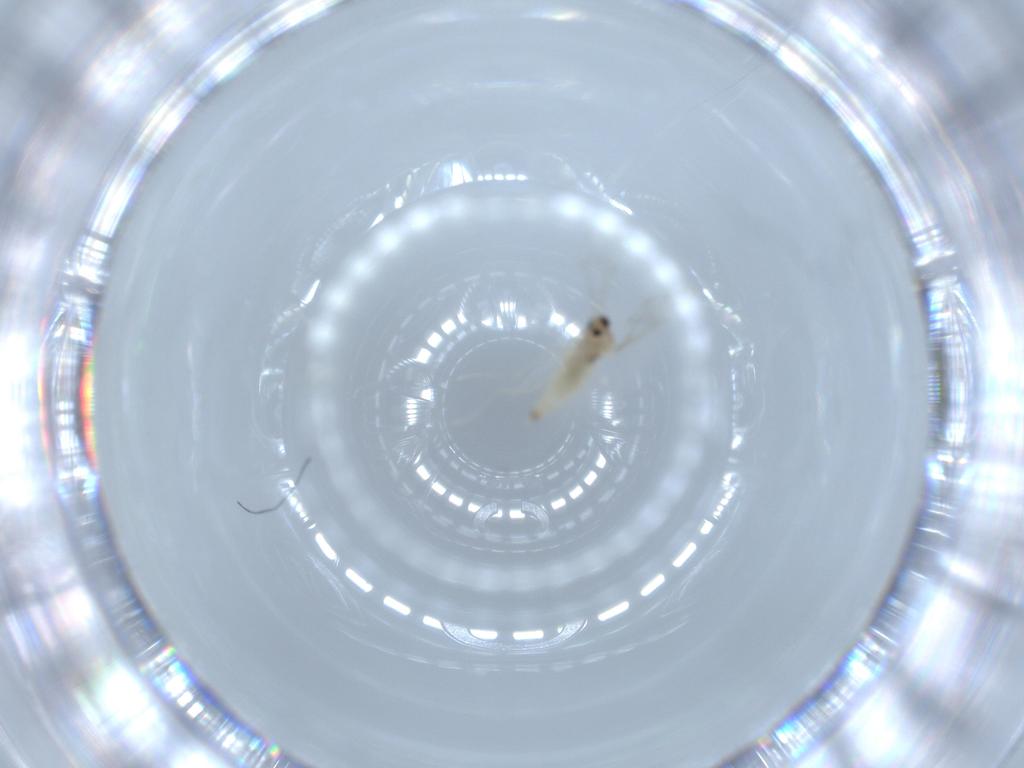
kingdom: Animalia
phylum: Arthropoda
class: Insecta
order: Diptera
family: Cecidomyiidae
